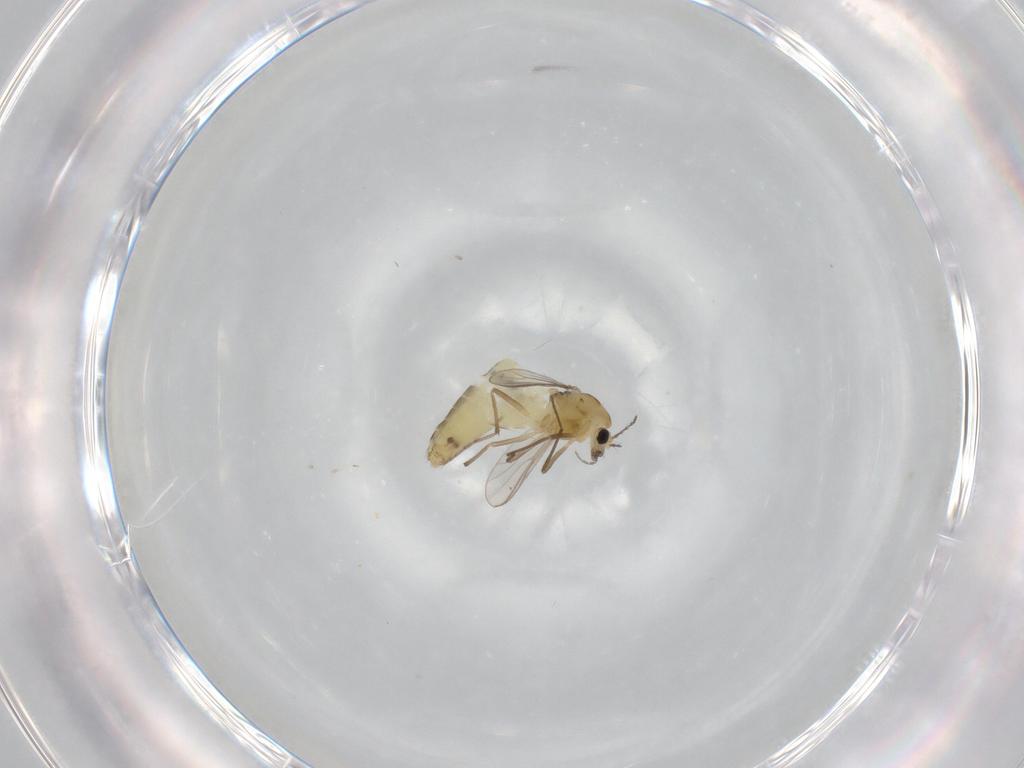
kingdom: Animalia
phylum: Arthropoda
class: Insecta
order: Diptera
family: Chironomidae
